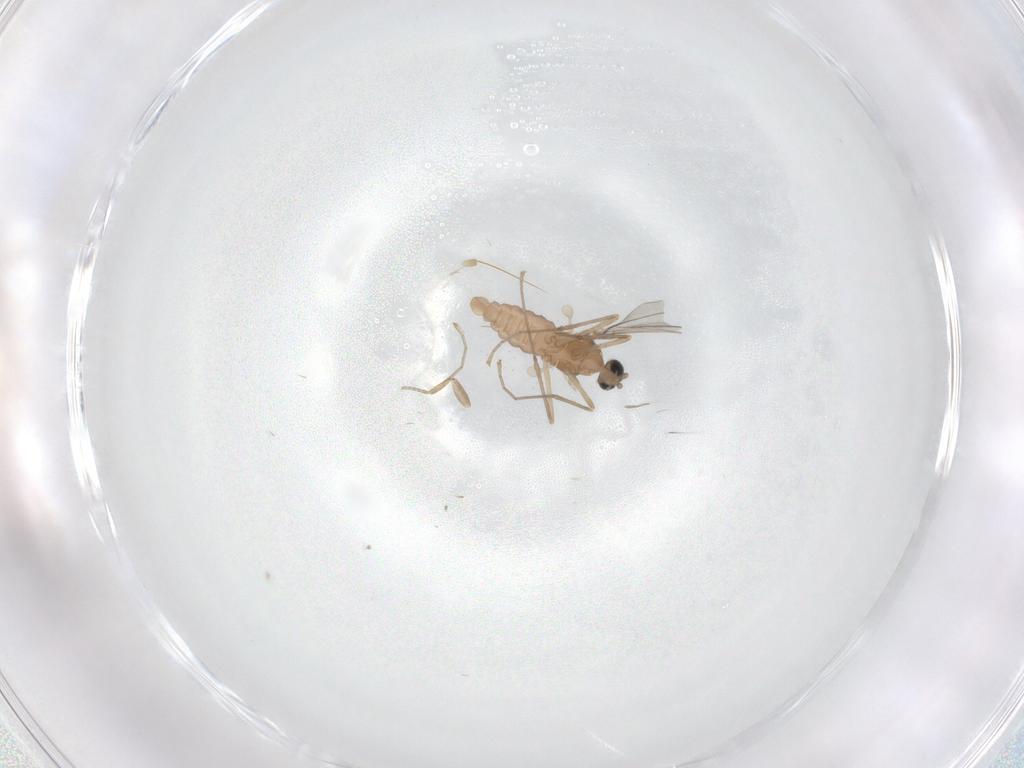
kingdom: Animalia
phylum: Arthropoda
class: Insecta
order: Diptera
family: Cecidomyiidae
